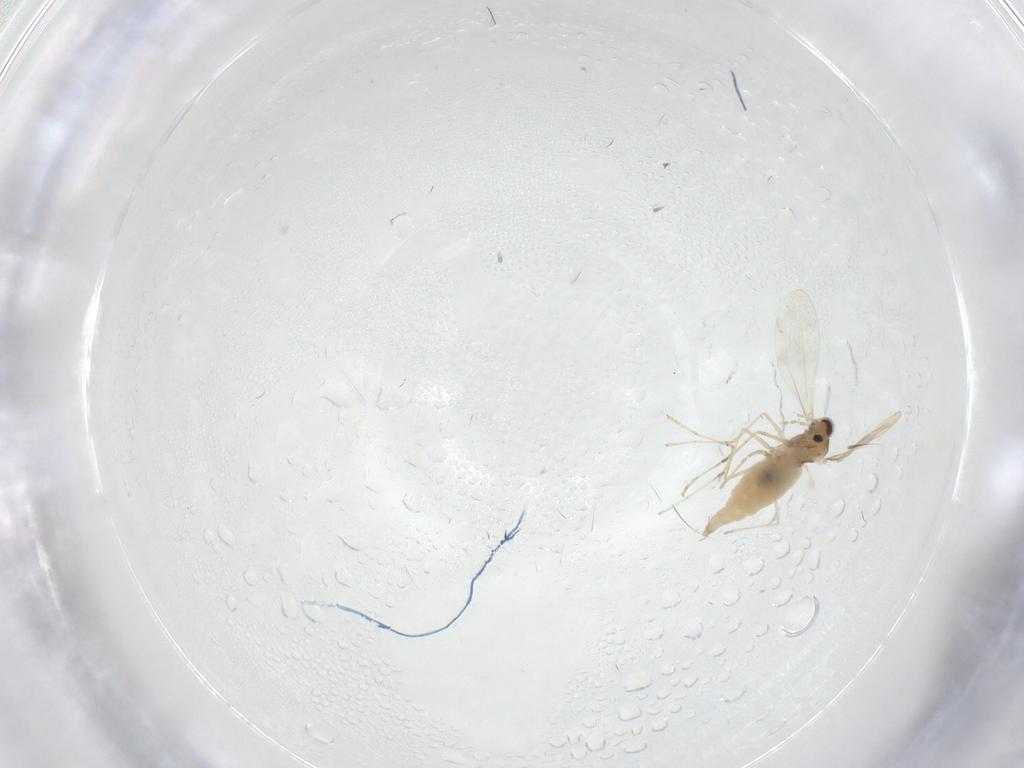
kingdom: Animalia
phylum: Arthropoda
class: Insecta
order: Diptera
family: Cecidomyiidae
